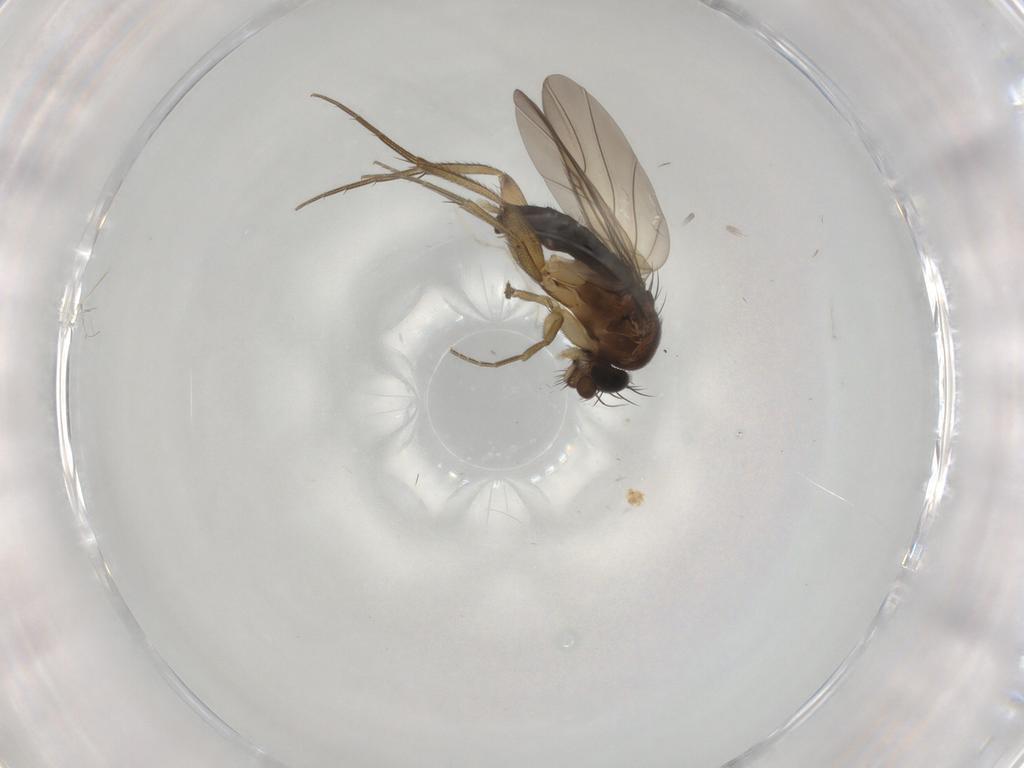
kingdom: Animalia
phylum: Arthropoda
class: Insecta
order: Diptera
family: Phoridae
